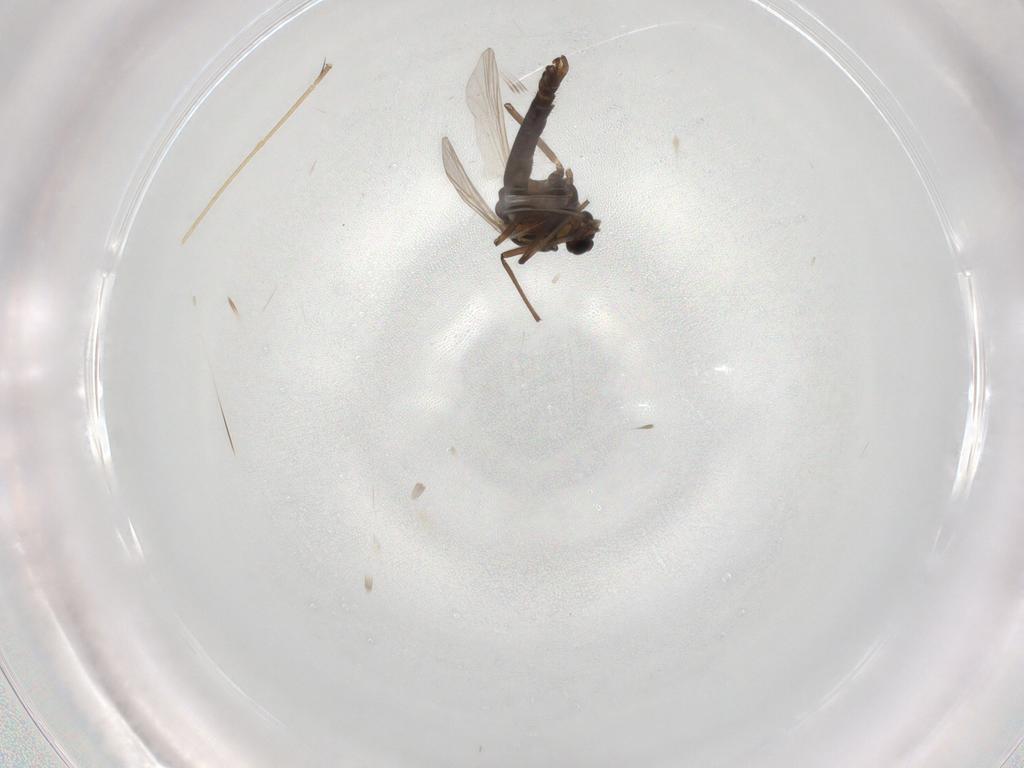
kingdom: Animalia
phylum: Arthropoda
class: Insecta
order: Diptera
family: Chironomidae
